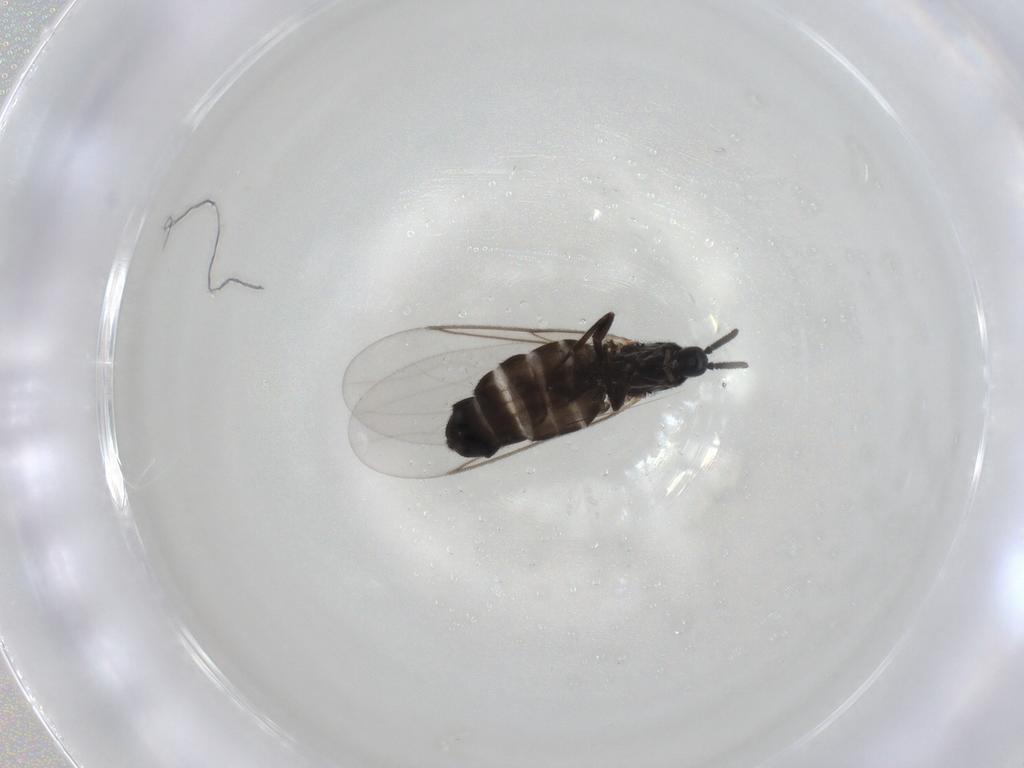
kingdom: Animalia
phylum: Arthropoda
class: Insecta
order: Diptera
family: Scatopsidae
